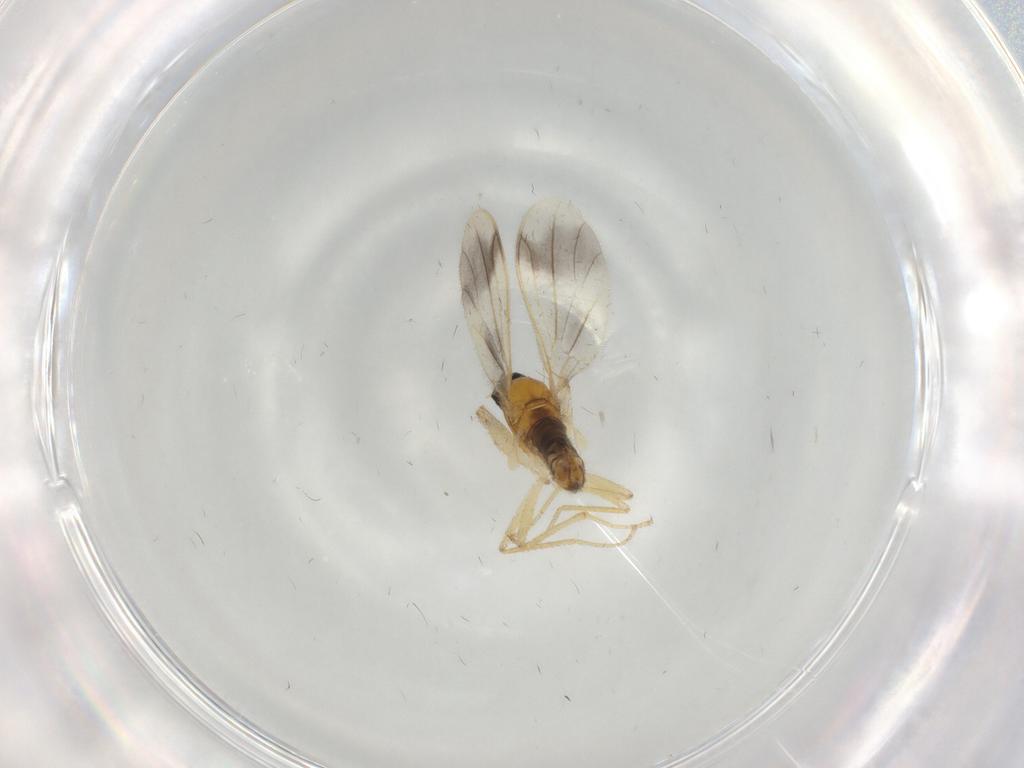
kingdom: Animalia
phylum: Arthropoda
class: Insecta
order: Diptera
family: Empididae
